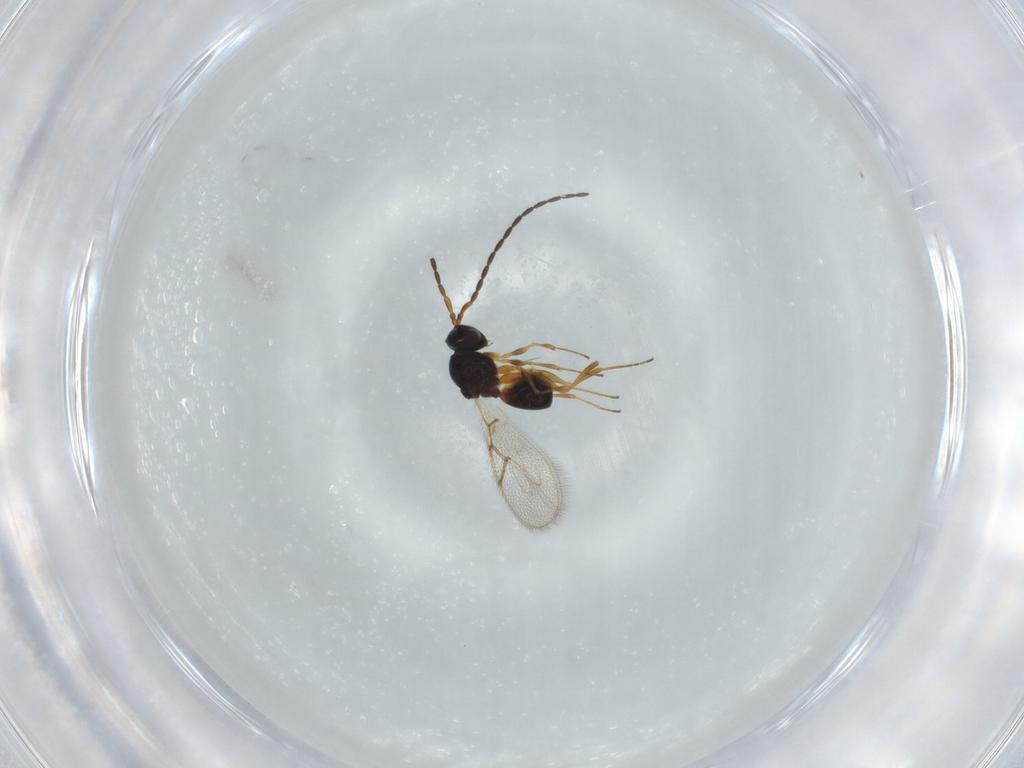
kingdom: Animalia
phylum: Arthropoda
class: Insecta
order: Hymenoptera
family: Figitidae
